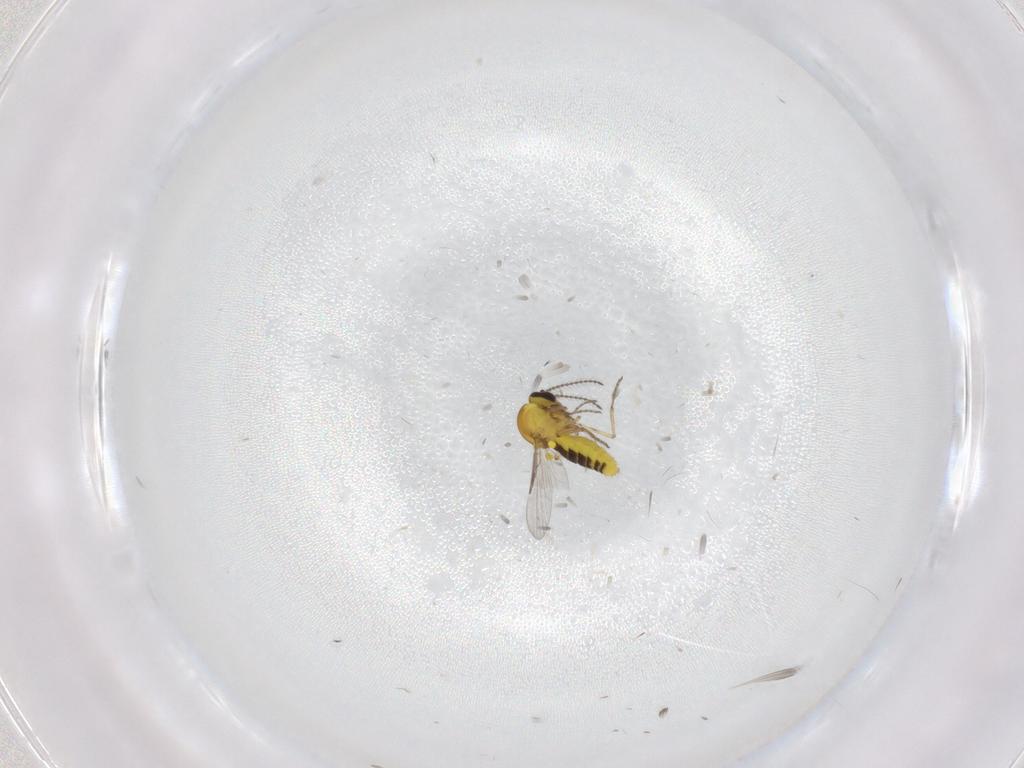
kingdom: Animalia
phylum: Arthropoda
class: Insecta
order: Diptera
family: Ceratopogonidae
